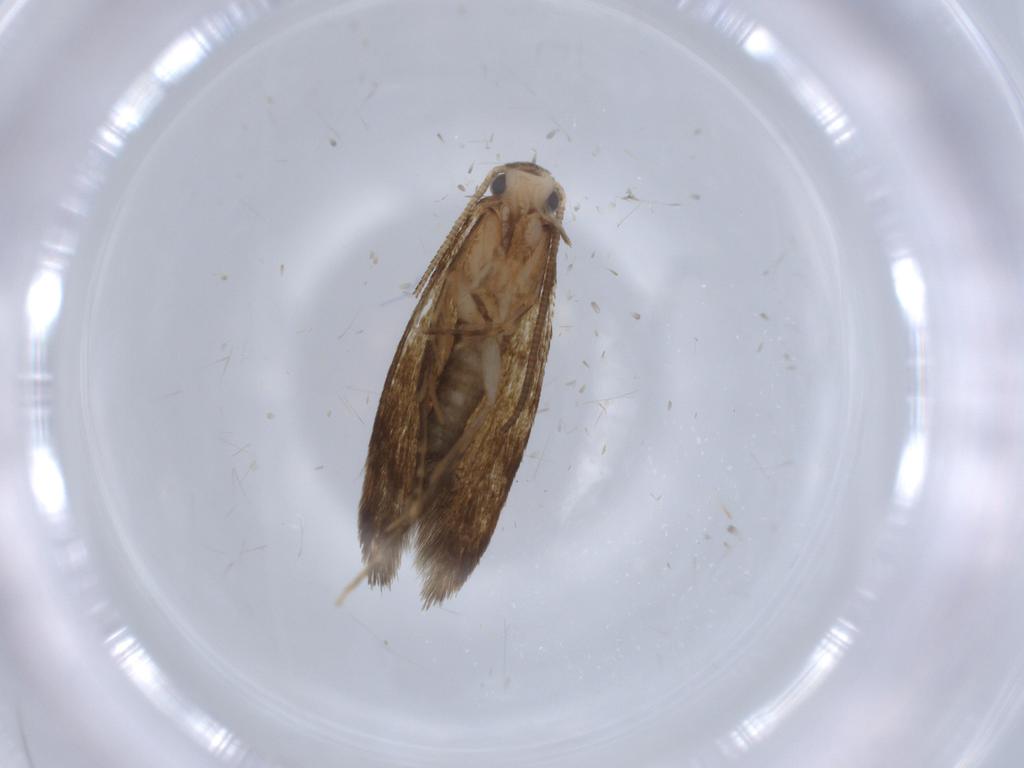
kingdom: Animalia
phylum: Arthropoda
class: Insecta
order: Lepidoptera
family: Tineidae
